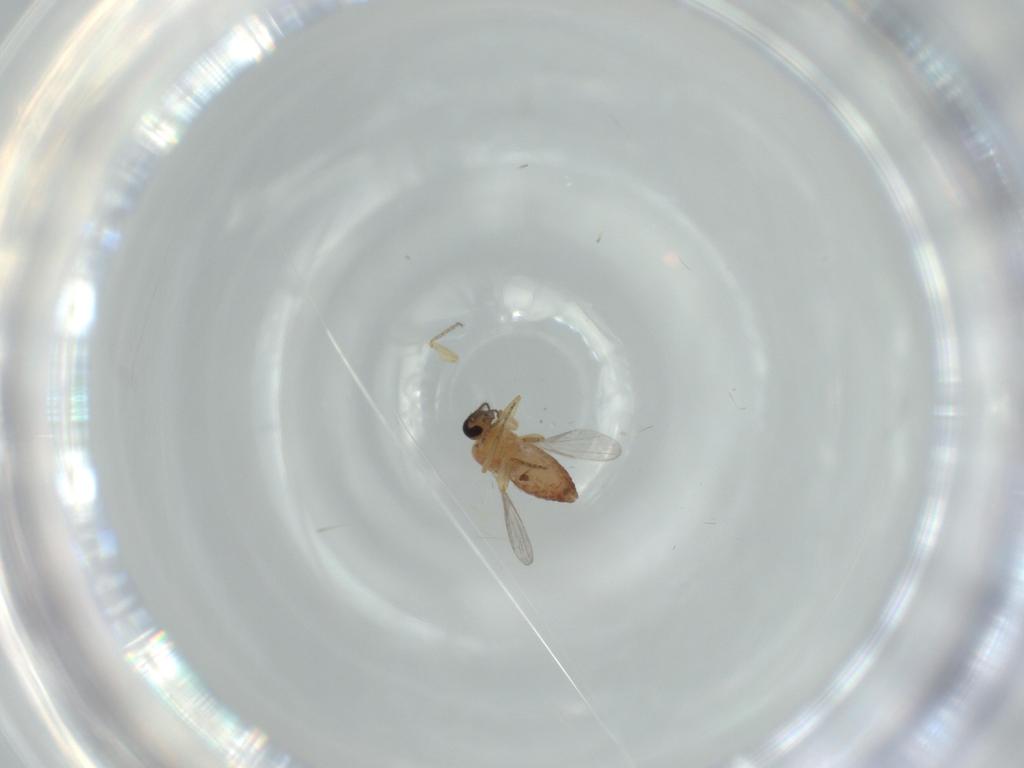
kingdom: Animalia
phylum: Arthropoda
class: Insecta
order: Diptera
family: Ceratopogonidae
